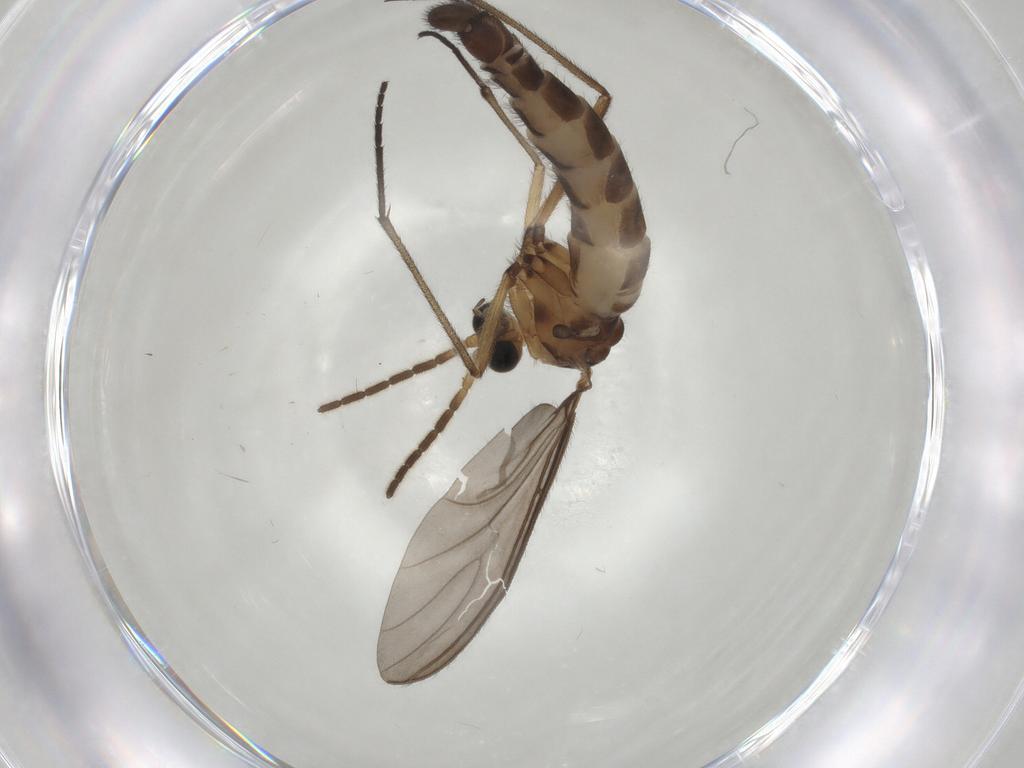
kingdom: Animalia
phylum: Arthropoda
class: Insecta
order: Diptera
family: Sciaridae
